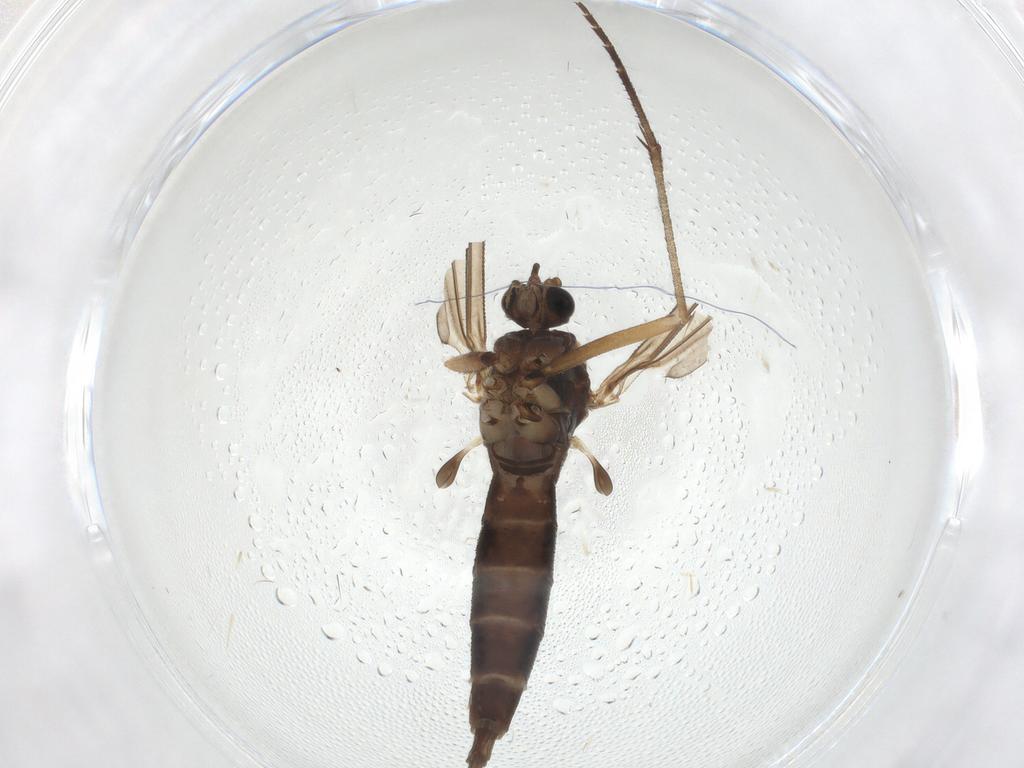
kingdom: Animalia
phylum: Arthropoda
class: Insecta
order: Diptera
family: Sciaridae
